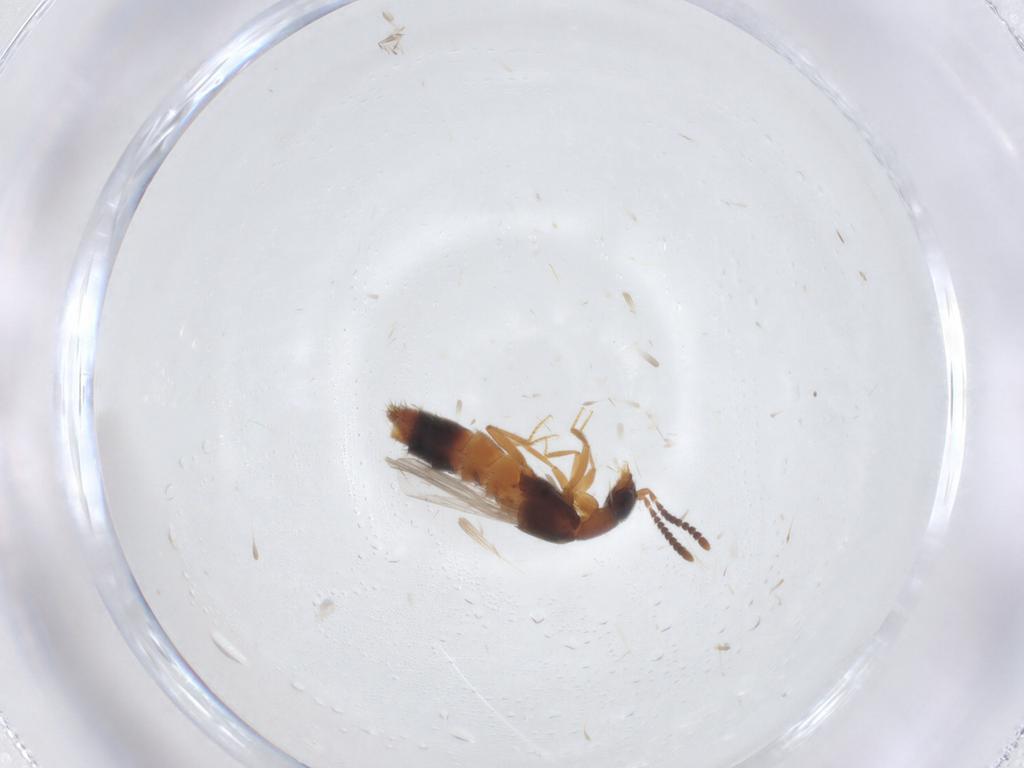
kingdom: Animalia
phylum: Arthropoda
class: Insecta
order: Coleoptera
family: Staphylinidae
